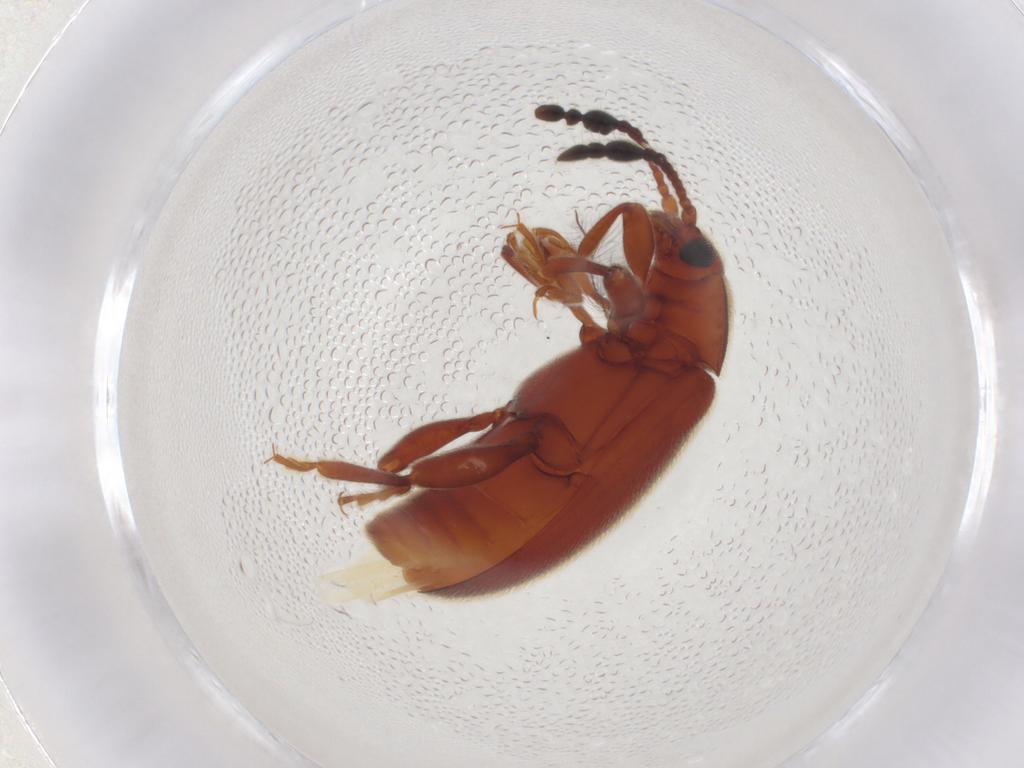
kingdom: Animalia
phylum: Arthropoda
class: Insecta
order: Coleoptera
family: Endomychidae
